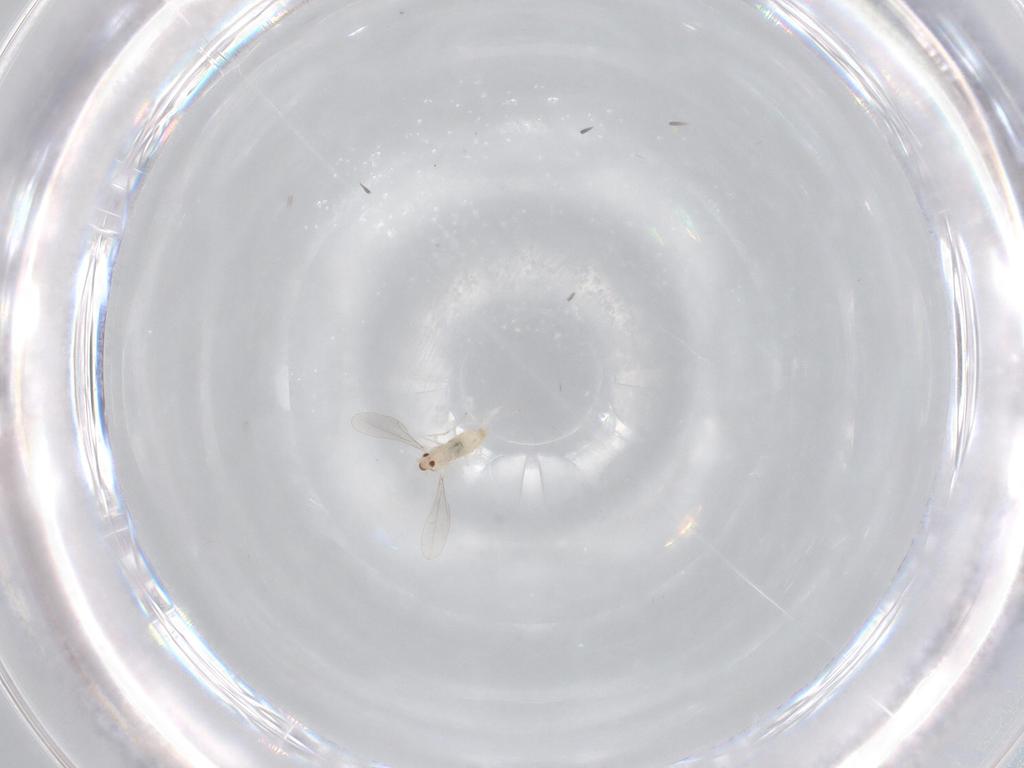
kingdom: Animalia
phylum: Arthropoda
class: Insecta
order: Diptera
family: Cecidomyiidae
